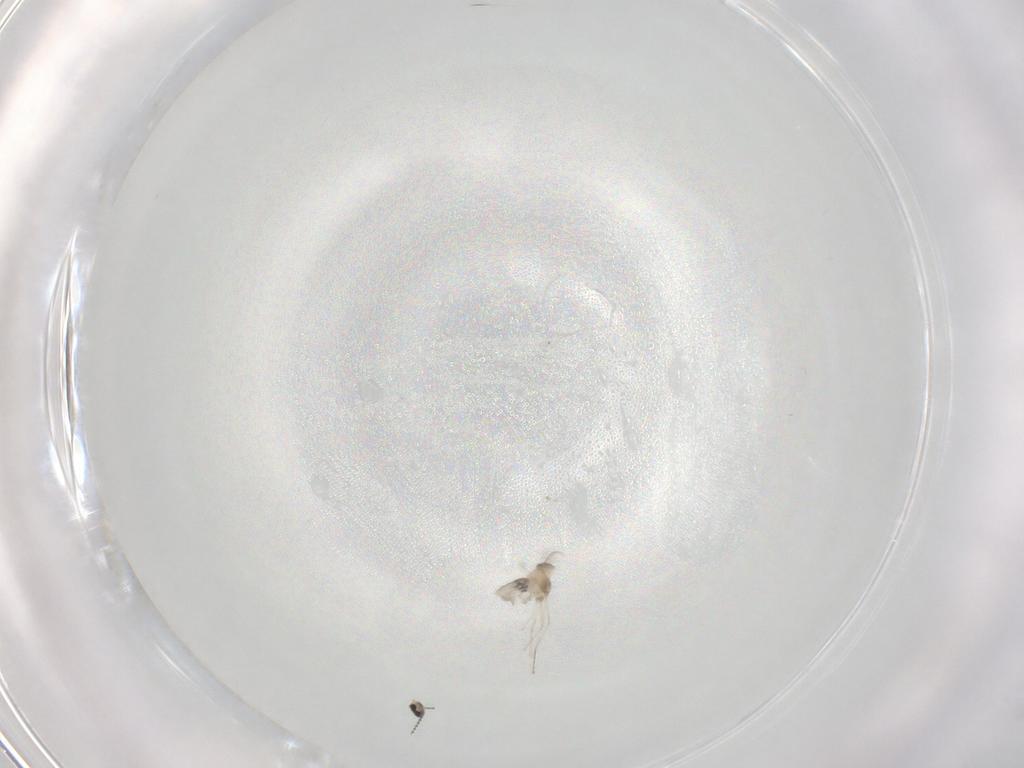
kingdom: Animalia
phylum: Arthropoda
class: Insecta
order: Diptera
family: Cecidomyiidae
